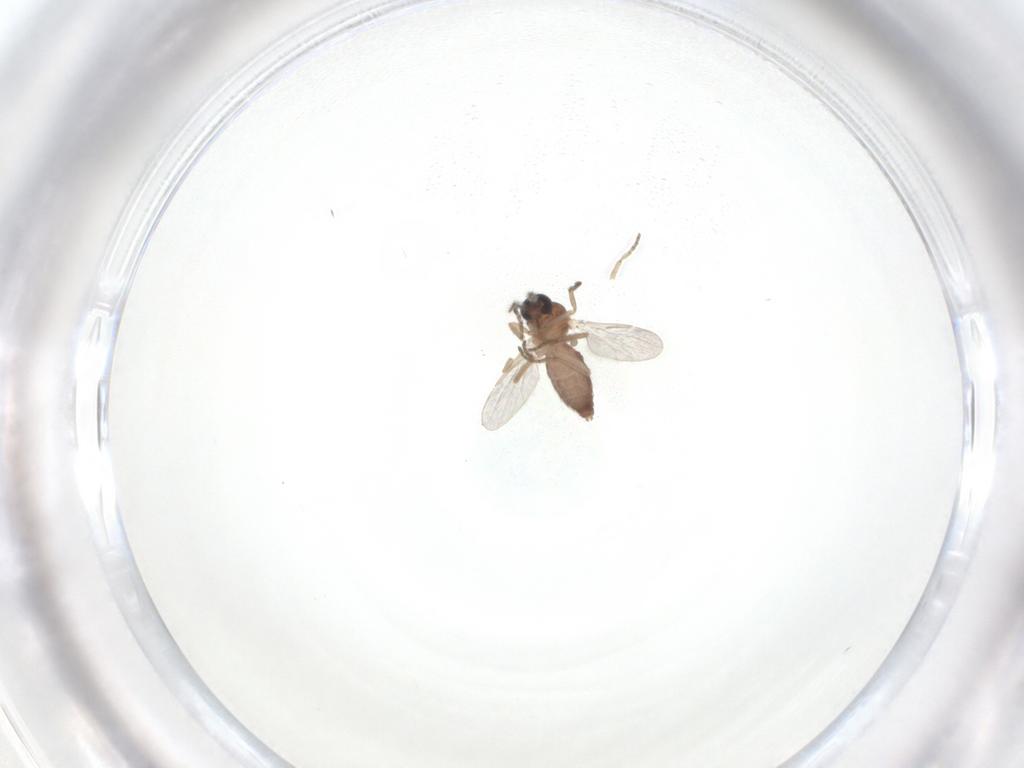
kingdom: Animalia
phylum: Arthropoda
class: Insecta
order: Diptera
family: Ceratopogonidae
